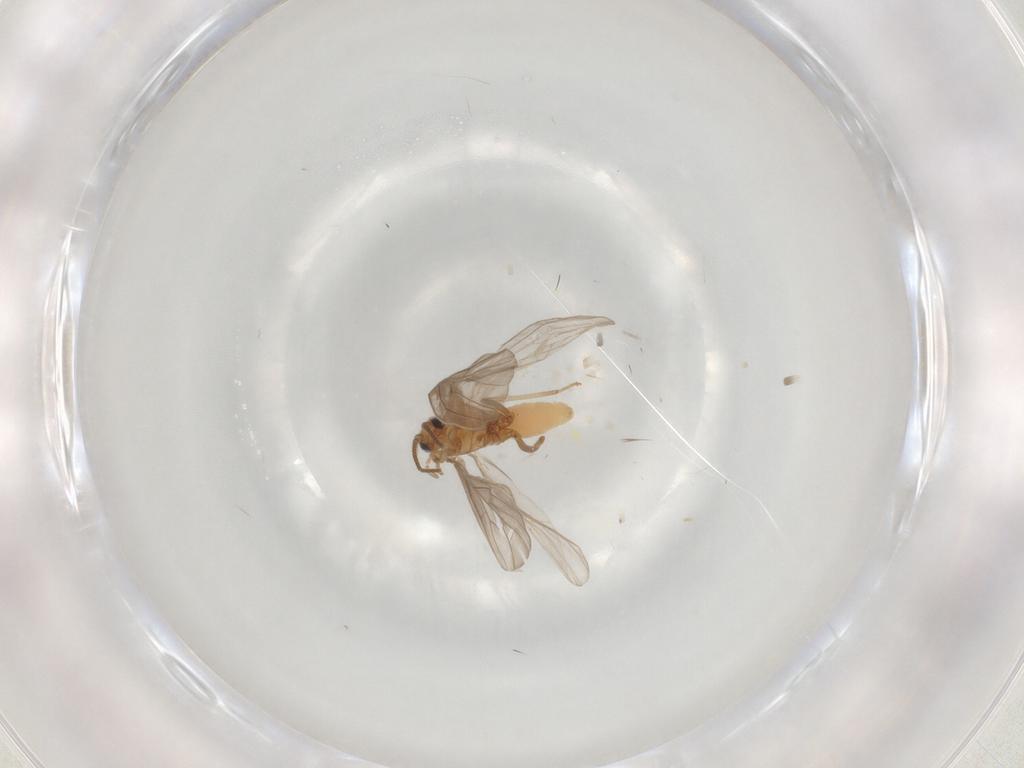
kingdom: Animalia
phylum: Arthropoda
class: Insecta
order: Neuroptera
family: Coniopterygidae
